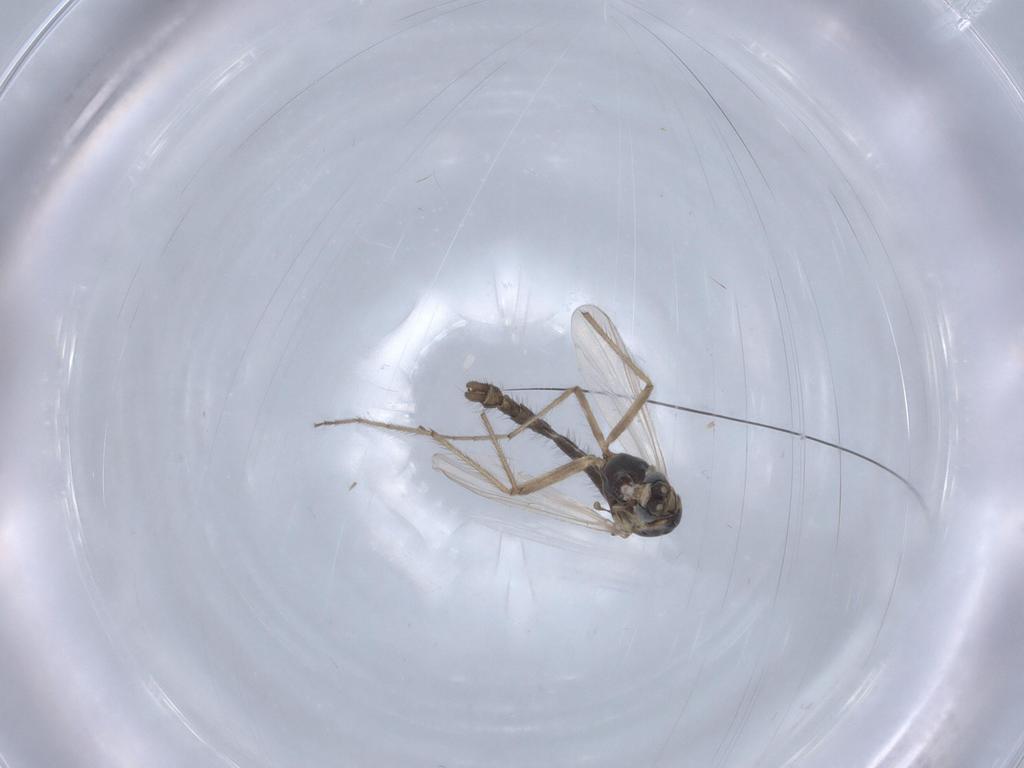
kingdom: Animalia
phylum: Arthropoda
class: Insecta
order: Diptera
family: Chironomidae
